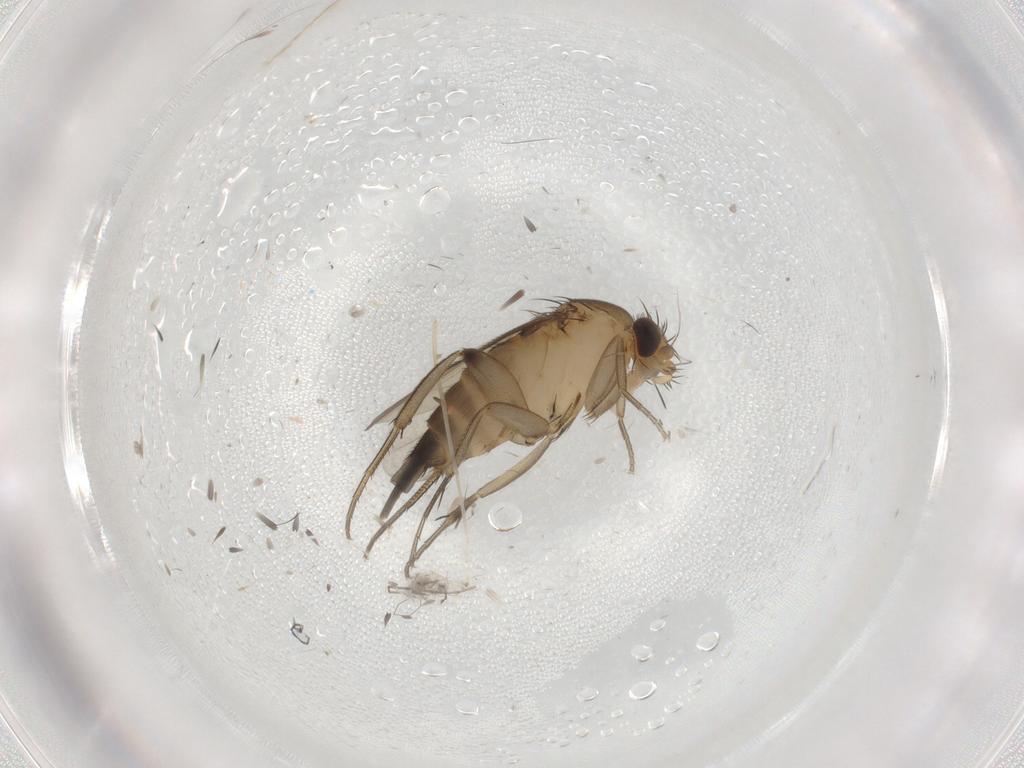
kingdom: Animalia
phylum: Arthropoda
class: Insecta
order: Diptera
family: Cecidomyiidae
